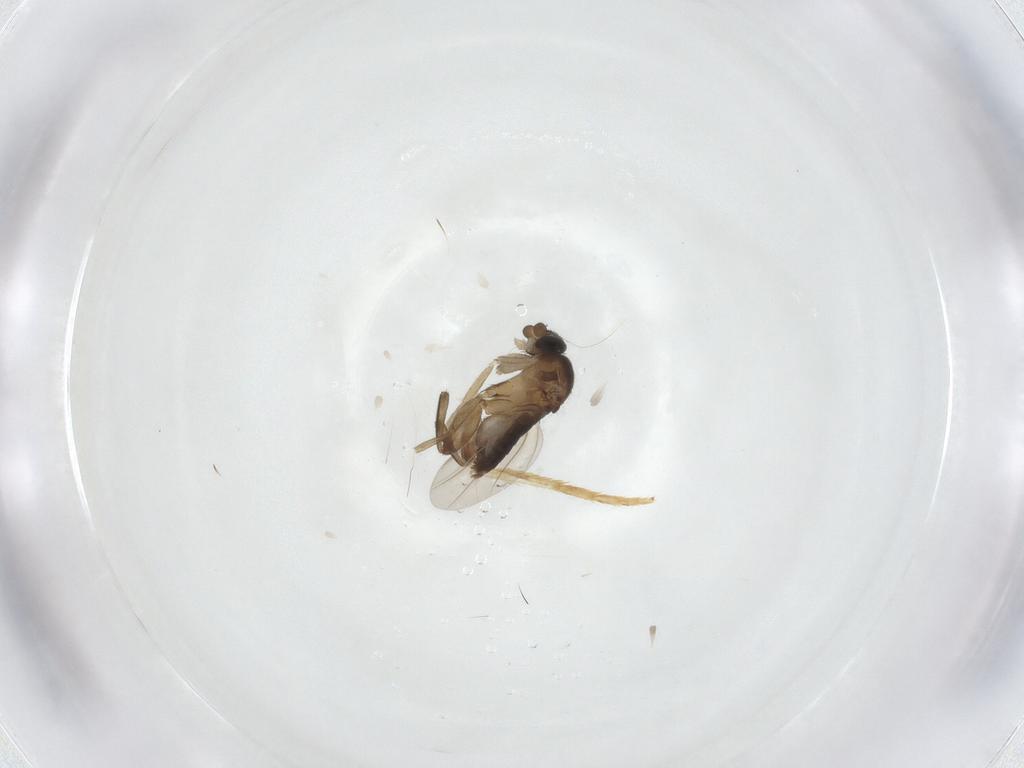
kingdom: Animalia
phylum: Arthropoda
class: Insecta
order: Diptera
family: Phoridae
